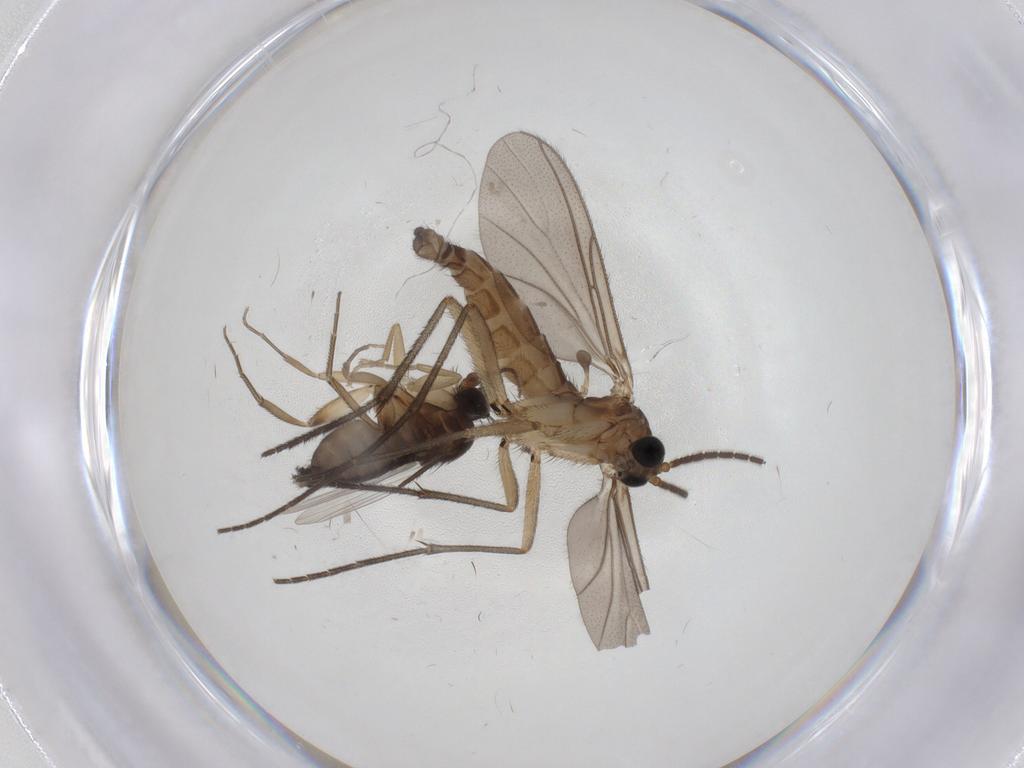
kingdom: Animalia
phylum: Arthropoda
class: Insecta
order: Diptera
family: Sciaridae
